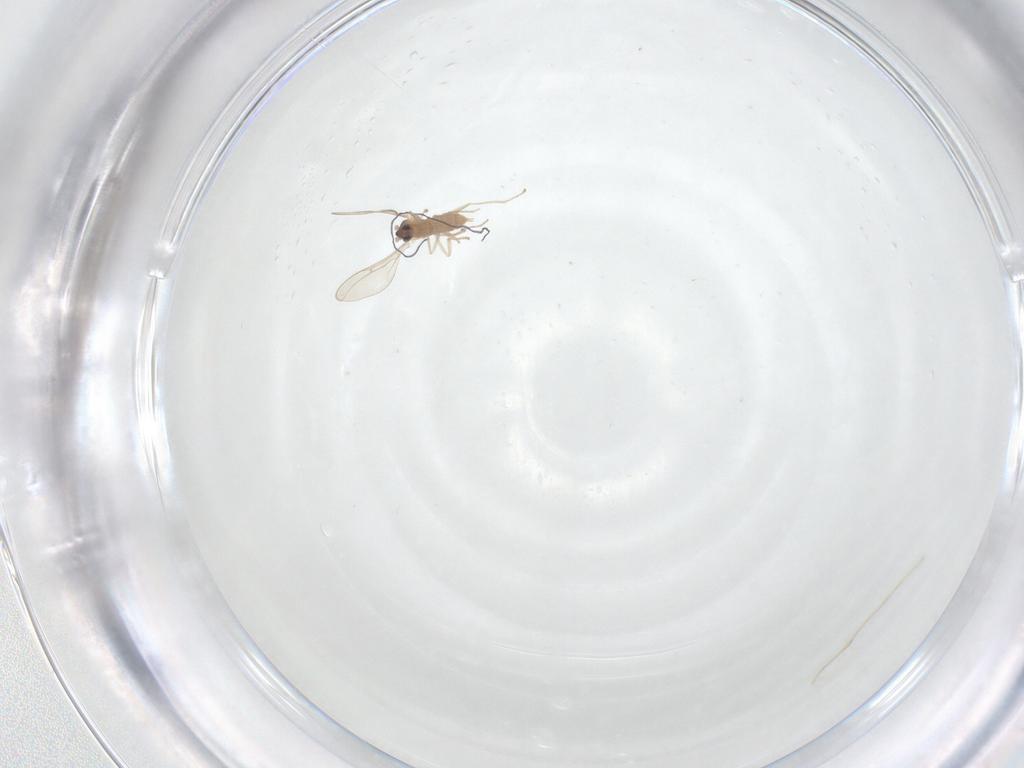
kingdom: Animalia
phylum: Arthropoda
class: Insecta
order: Diptera
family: Cecidomyiidae
